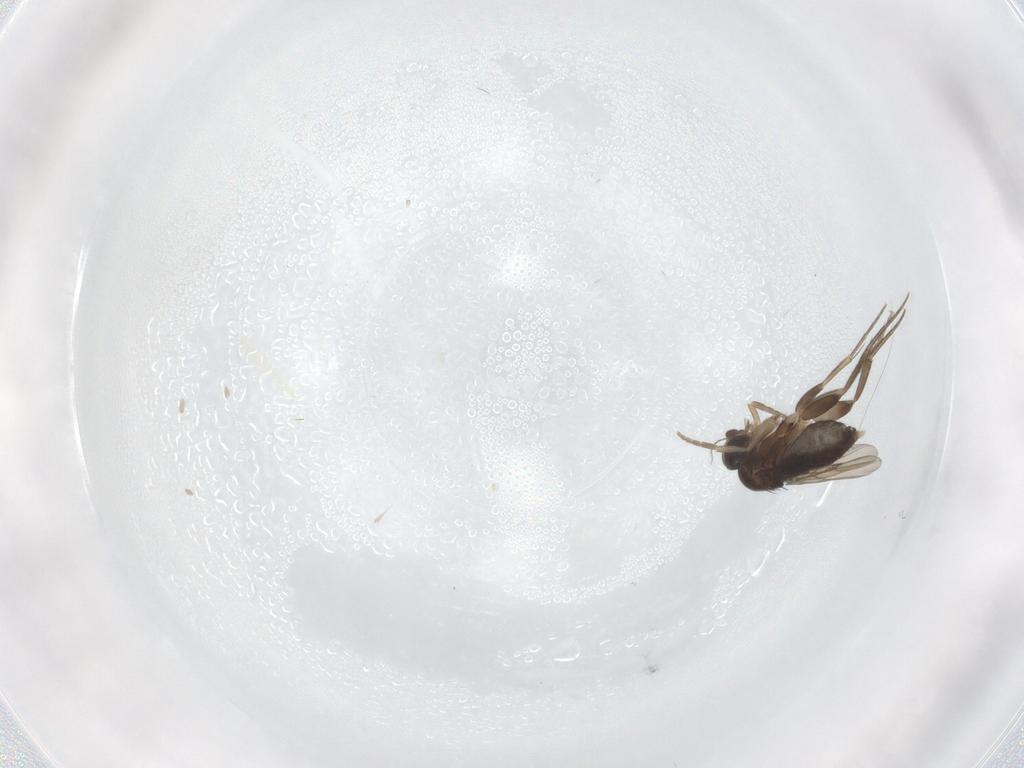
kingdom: Animalia
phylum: Arthropoda
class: Insecta
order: Diptera
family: Phoridae
